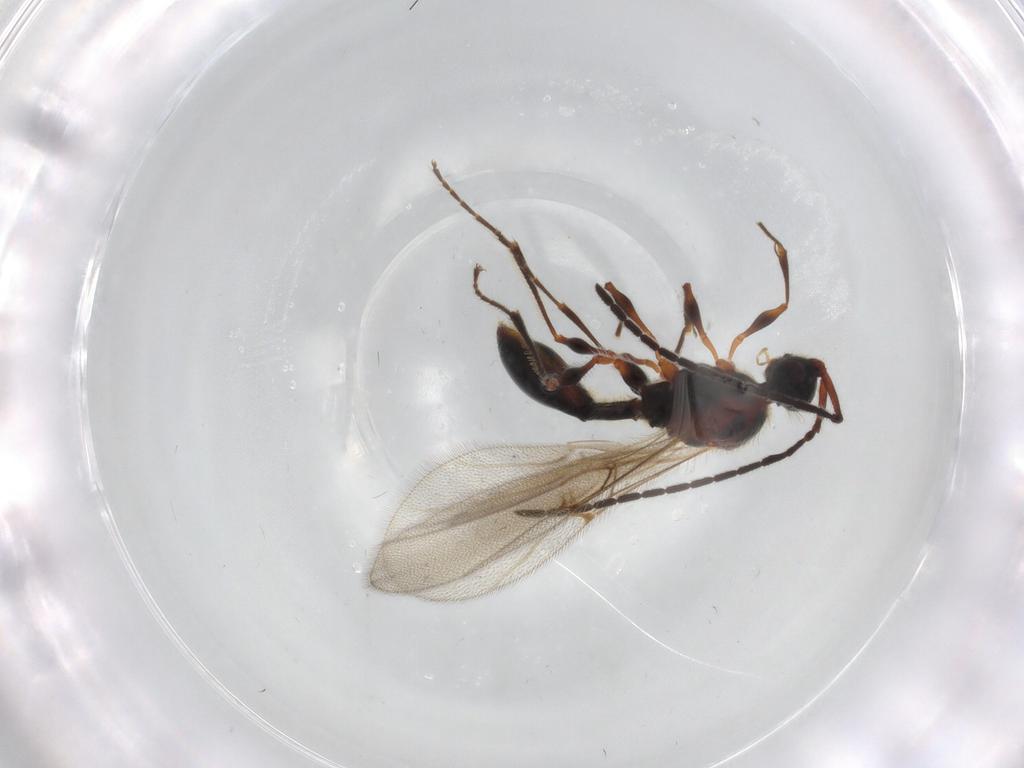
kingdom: Animalia
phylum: Arthropoda
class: Insecta
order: Hymenoptera
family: Diapriidae
